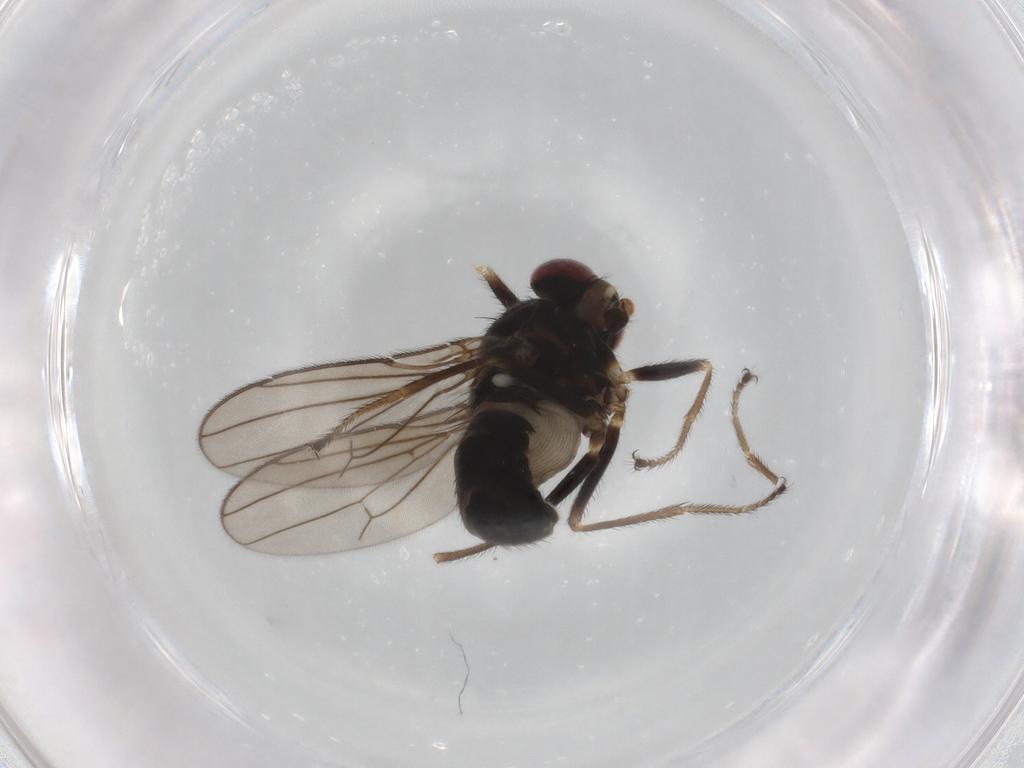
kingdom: Animalia
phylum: Arthropoda
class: Insecta
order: Diptera
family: Ephydridae
